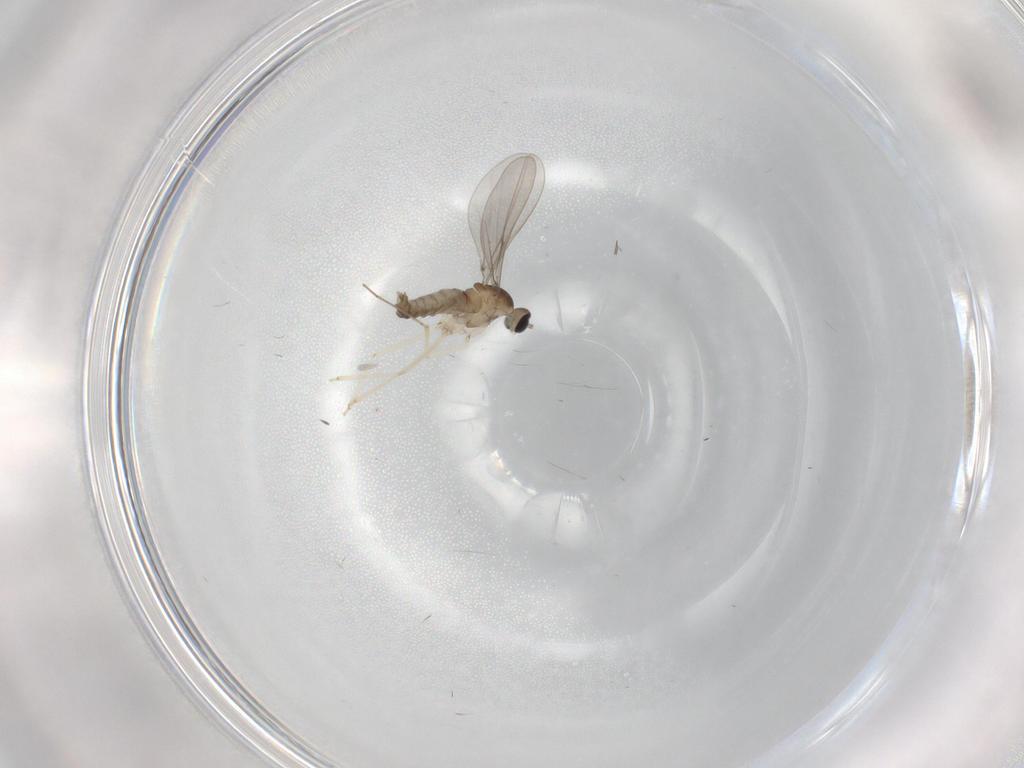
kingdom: Animalia
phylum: Arthropoda
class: Insecta
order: Diptera
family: Cecidomyiidae
